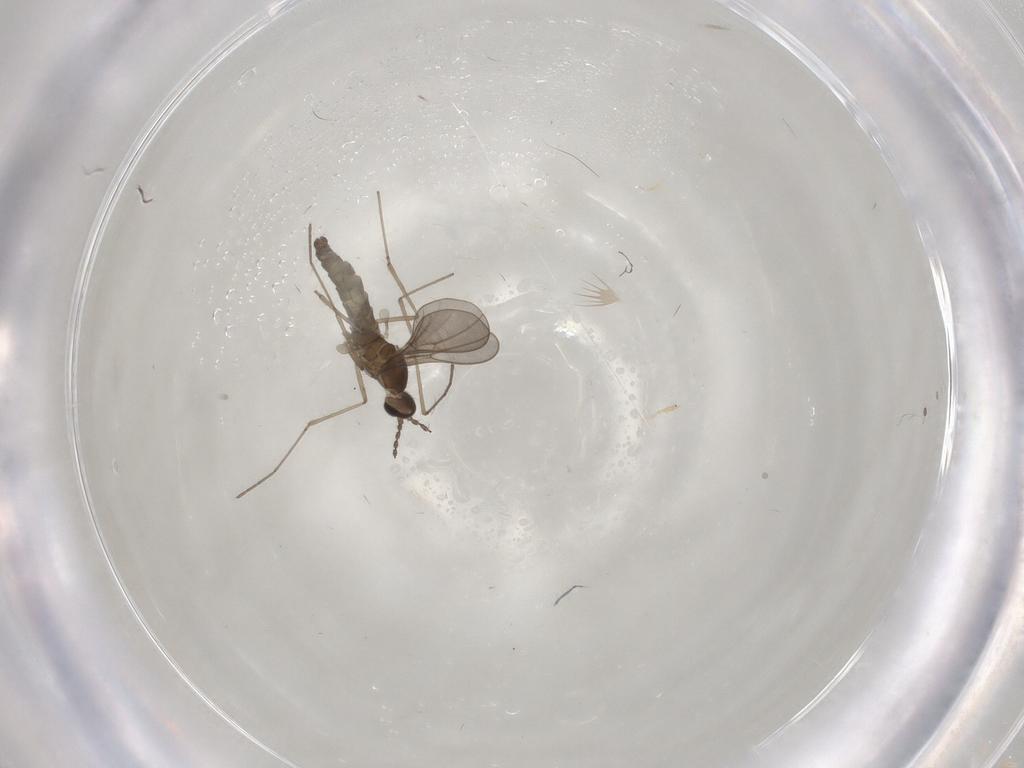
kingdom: Animalia
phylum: Arthropoda
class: Insecta
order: Diptera
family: Cecidomyiidae
